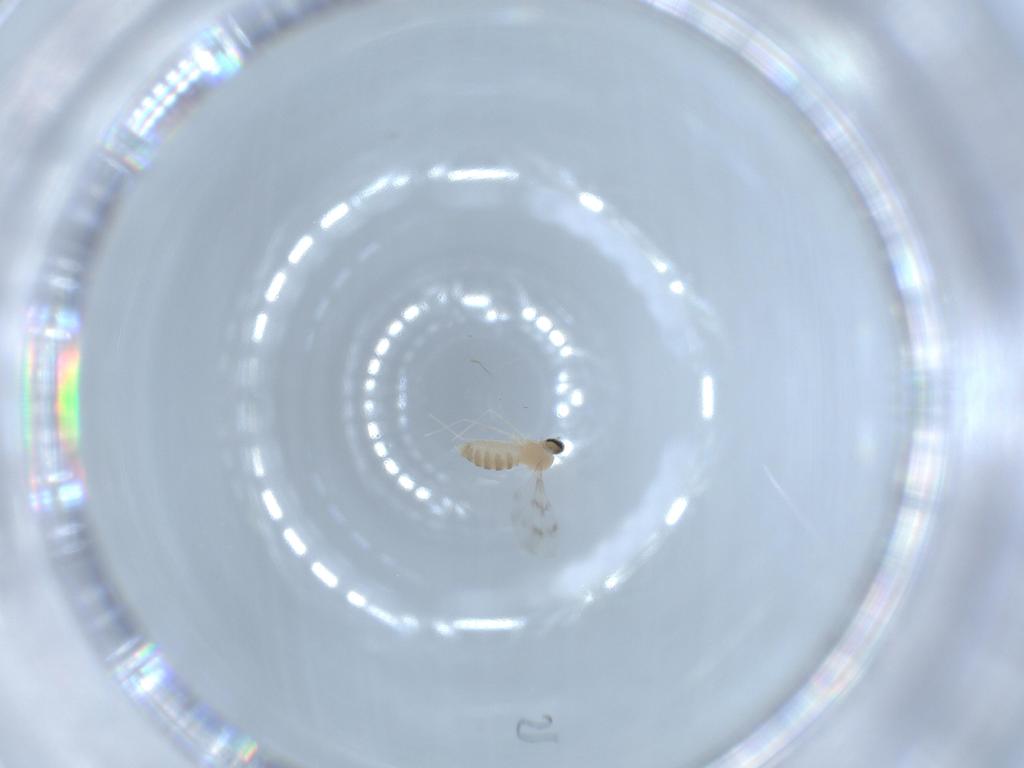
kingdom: Animalia
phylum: Arthropoda
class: Insecta
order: Diptera
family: Cecidomyiidae
